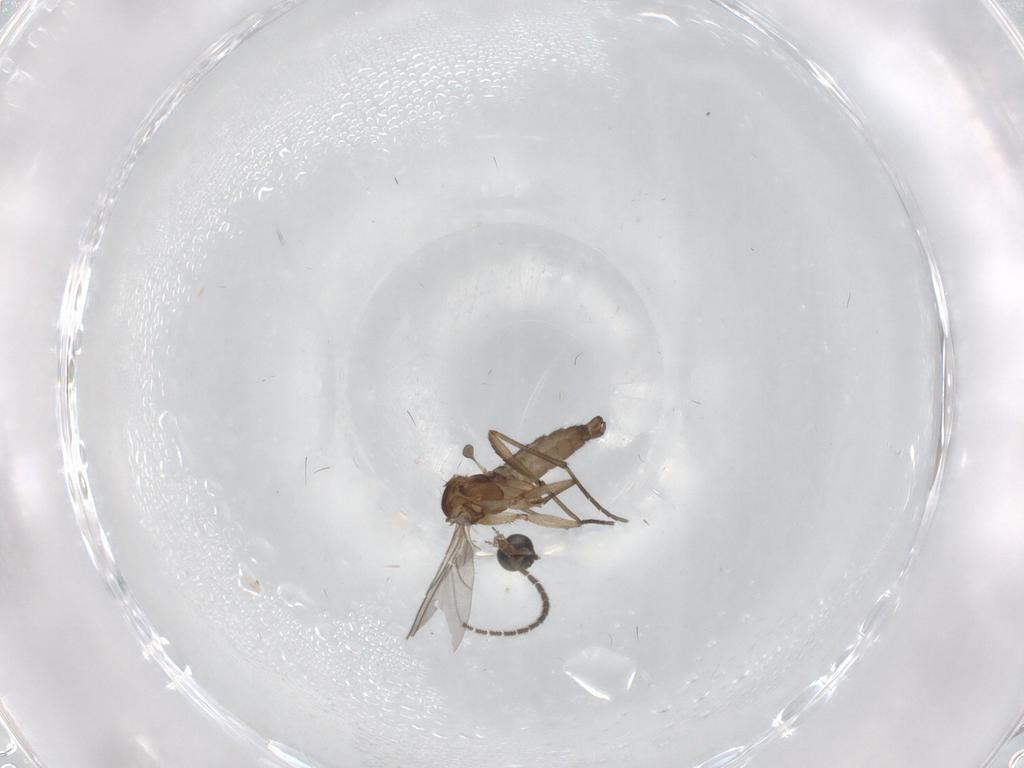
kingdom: Animalia
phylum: Arthropoda
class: Insecta
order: Diptera
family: Sciaridae
